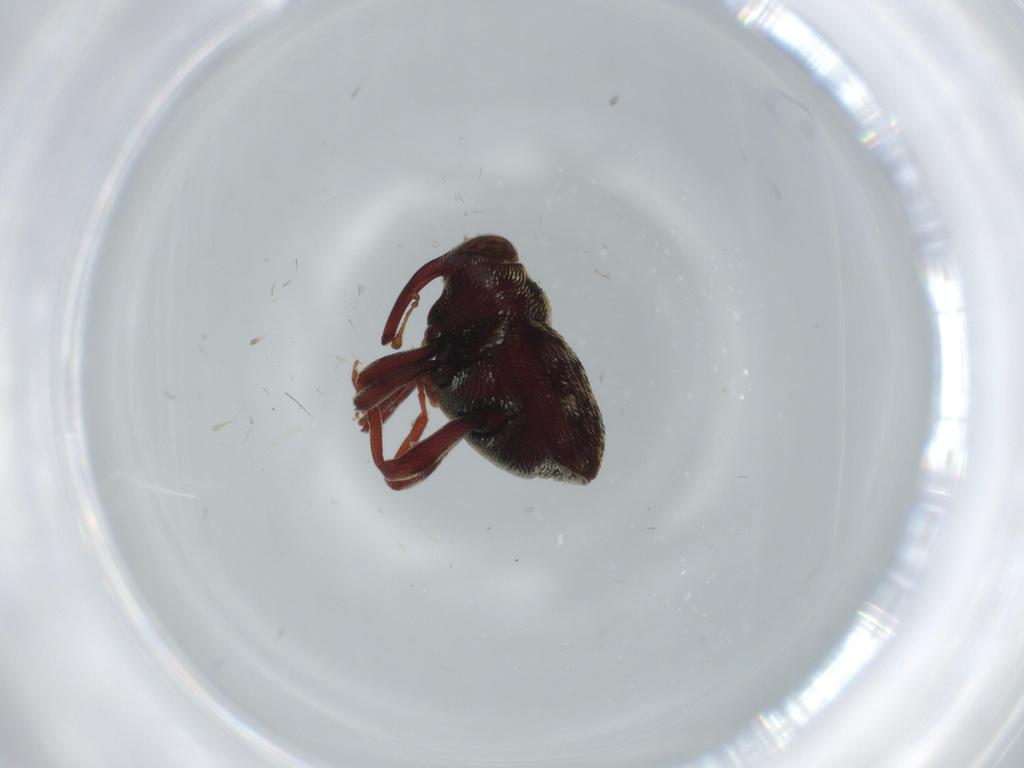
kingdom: Animalia
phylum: Arthropoda
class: Insecta
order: Coleoptera
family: Curculionidae
